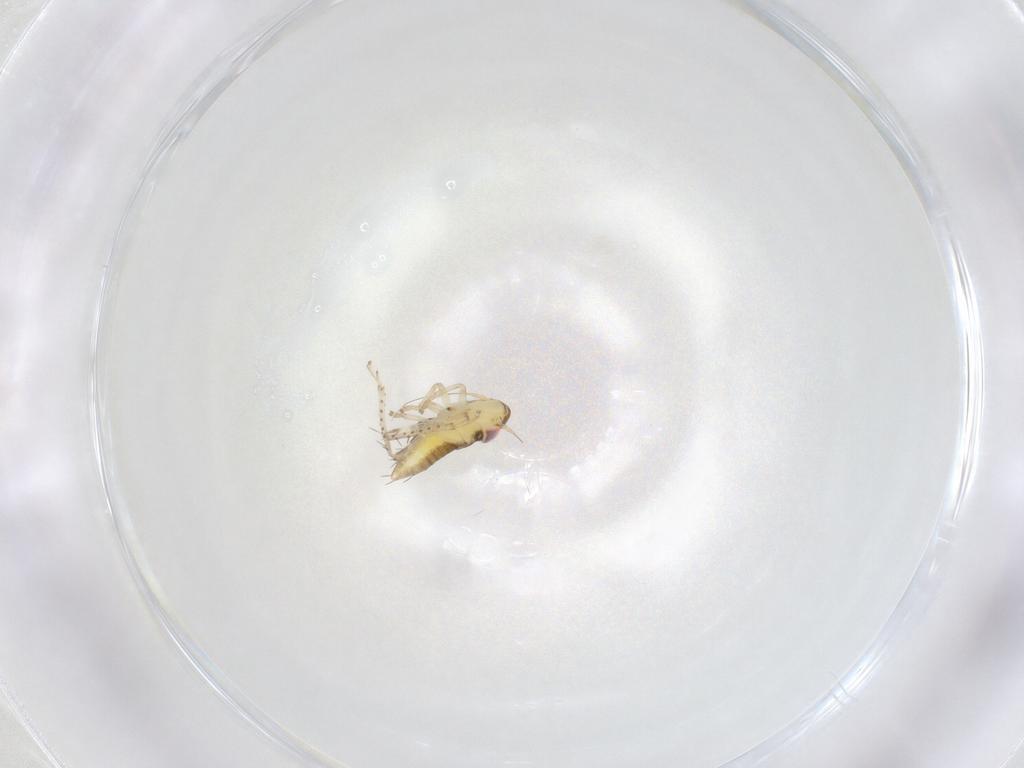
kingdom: Animalia
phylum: Arthropoda
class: Insecta
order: Hemiptera
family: Cicadellidae
